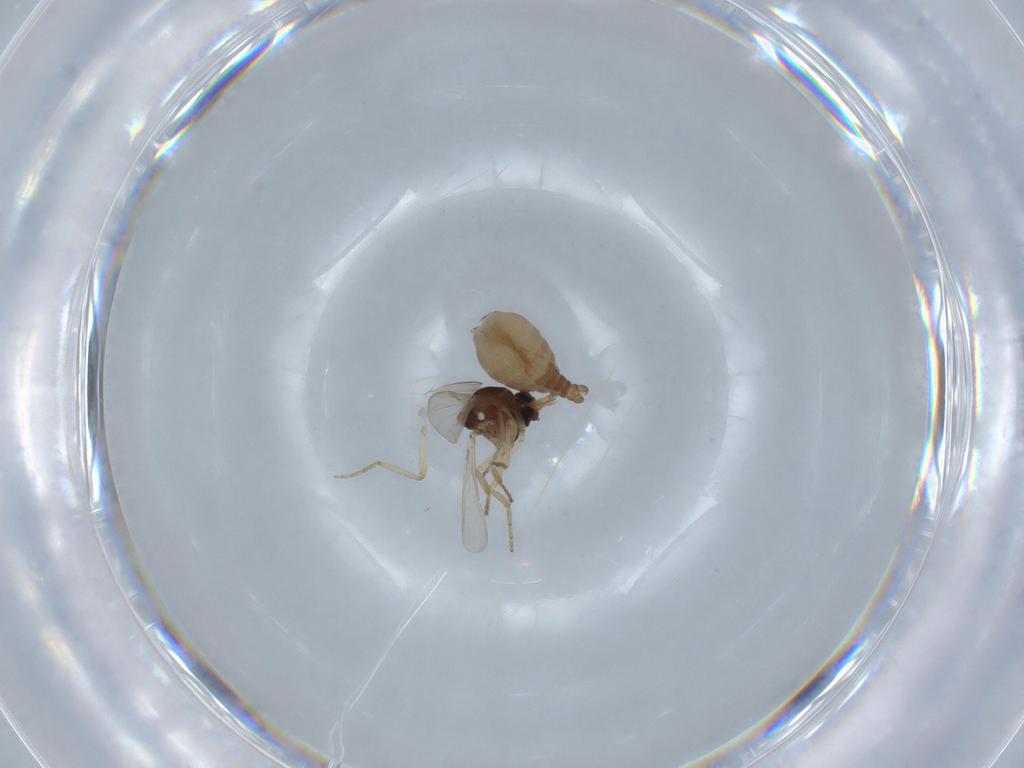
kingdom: Animalia
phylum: Arthropoda
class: Insecta
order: Diptera
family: Ceratopogonidae
